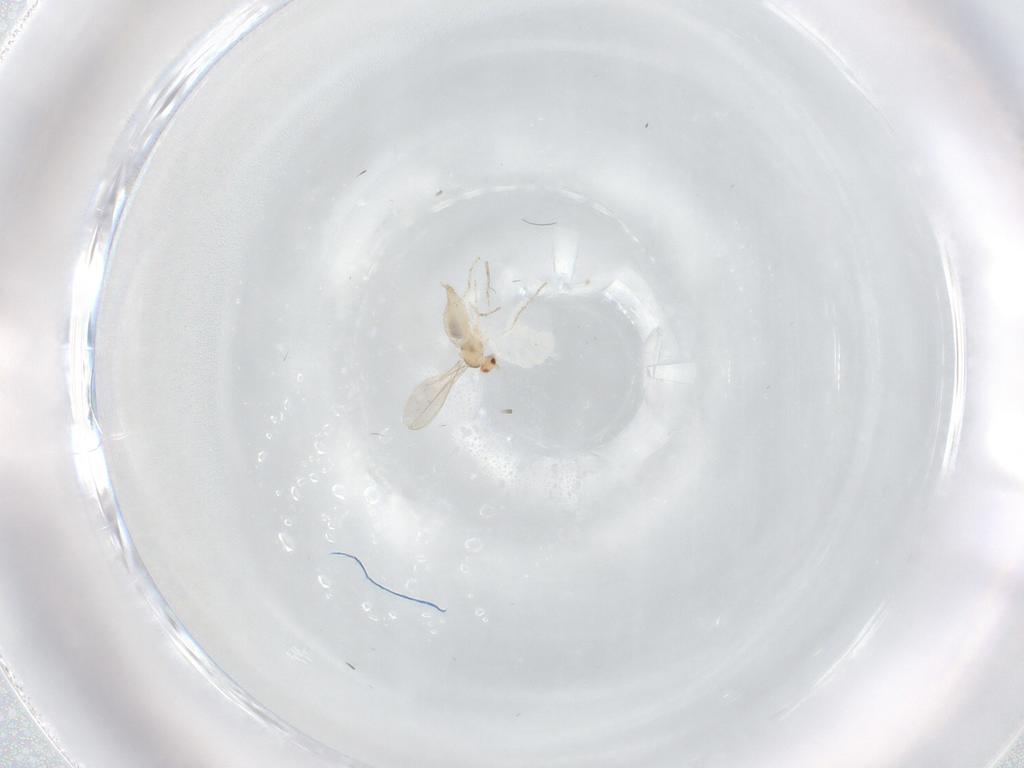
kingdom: Animalia
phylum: Arthropoda
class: Insecta
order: Diptera
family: Cecidomyiidae
